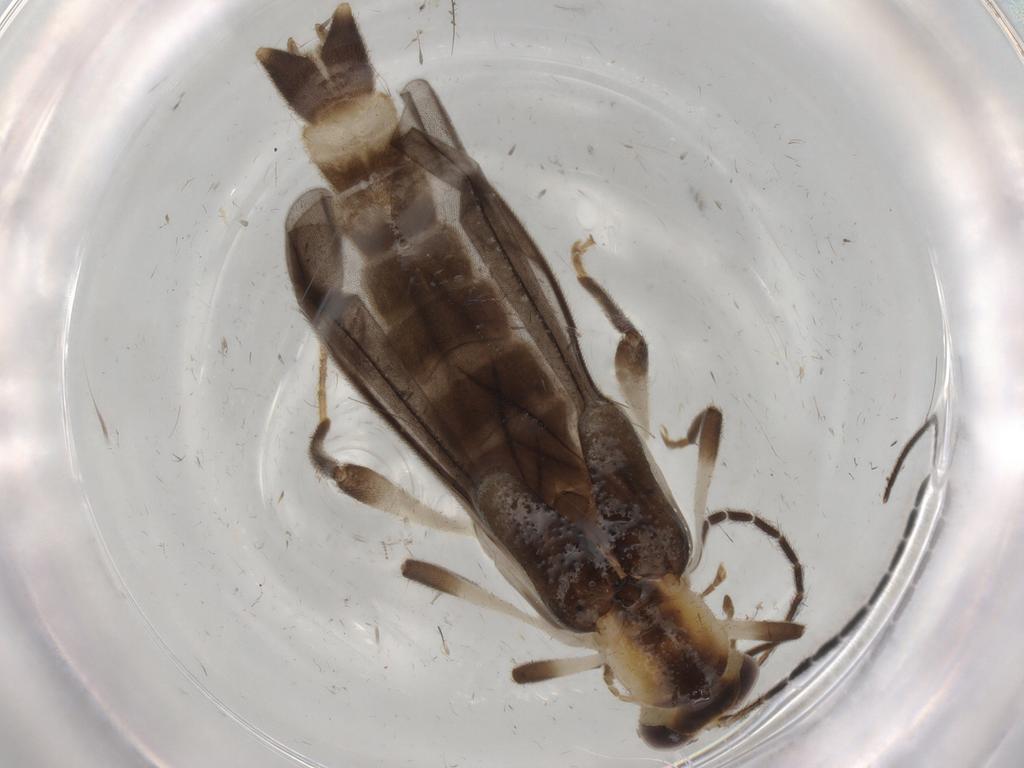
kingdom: Animalia
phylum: Arthropoda
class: Insecta
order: Coleoptera
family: Cantharidae
